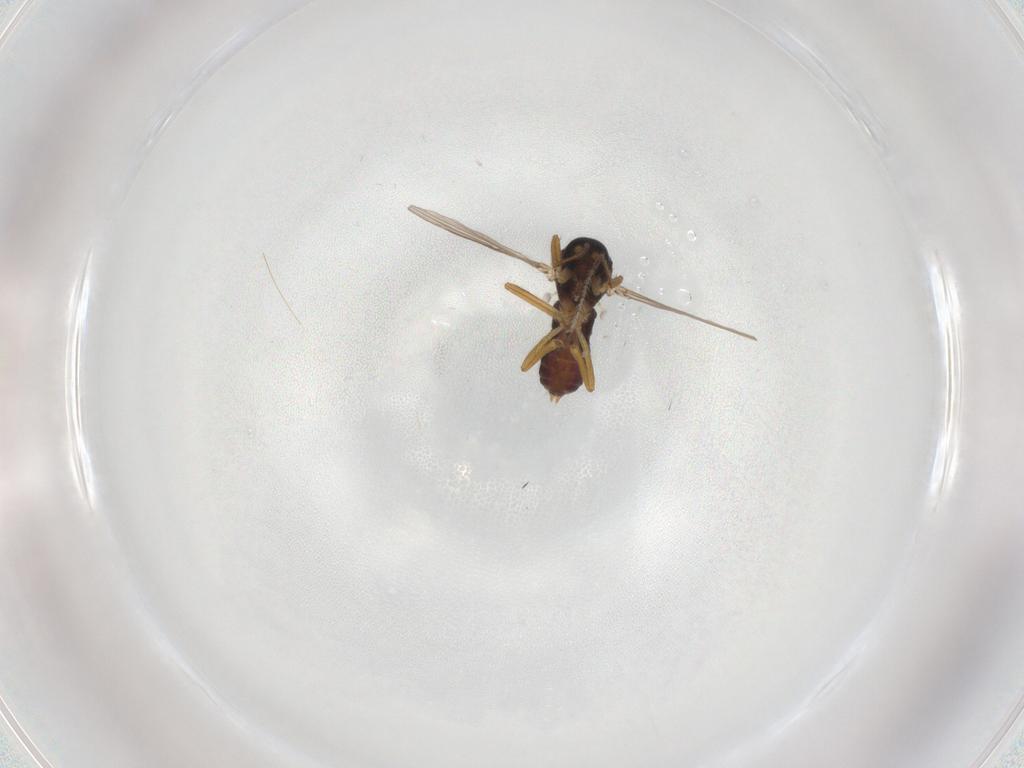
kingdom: Animalia
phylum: Arthropoda
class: Insecta
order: Diptera
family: Ceratopogonidae
